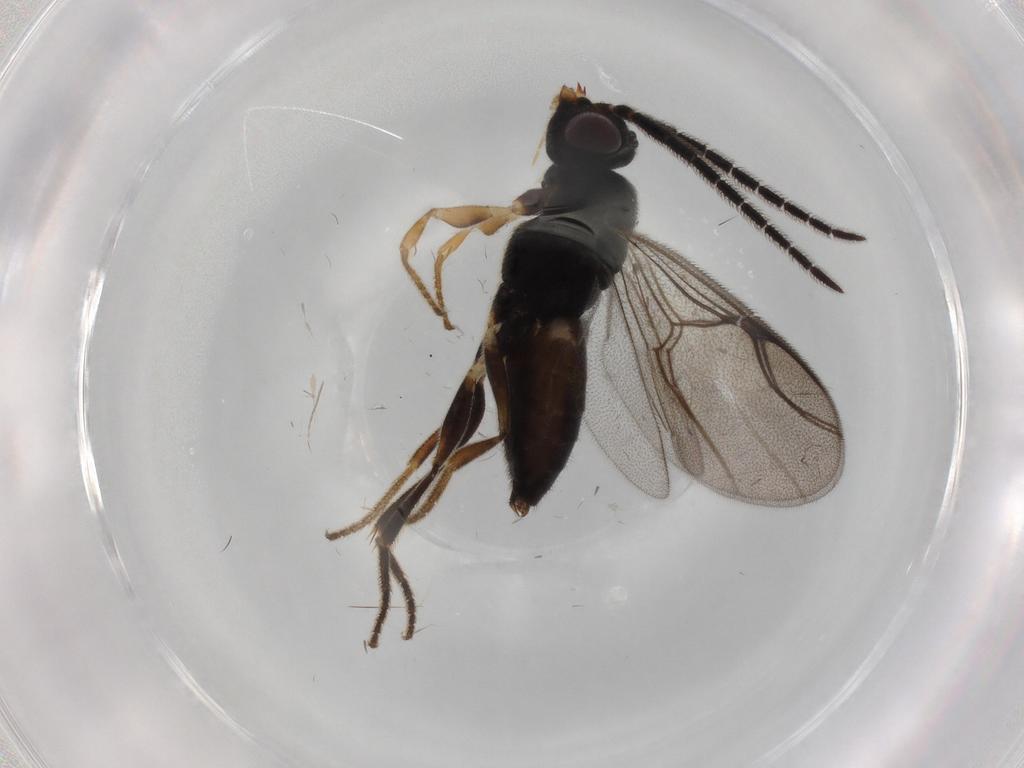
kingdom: Animalia
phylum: Arthropoda
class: Insecta
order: Hymenoptera
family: Dryinidae
